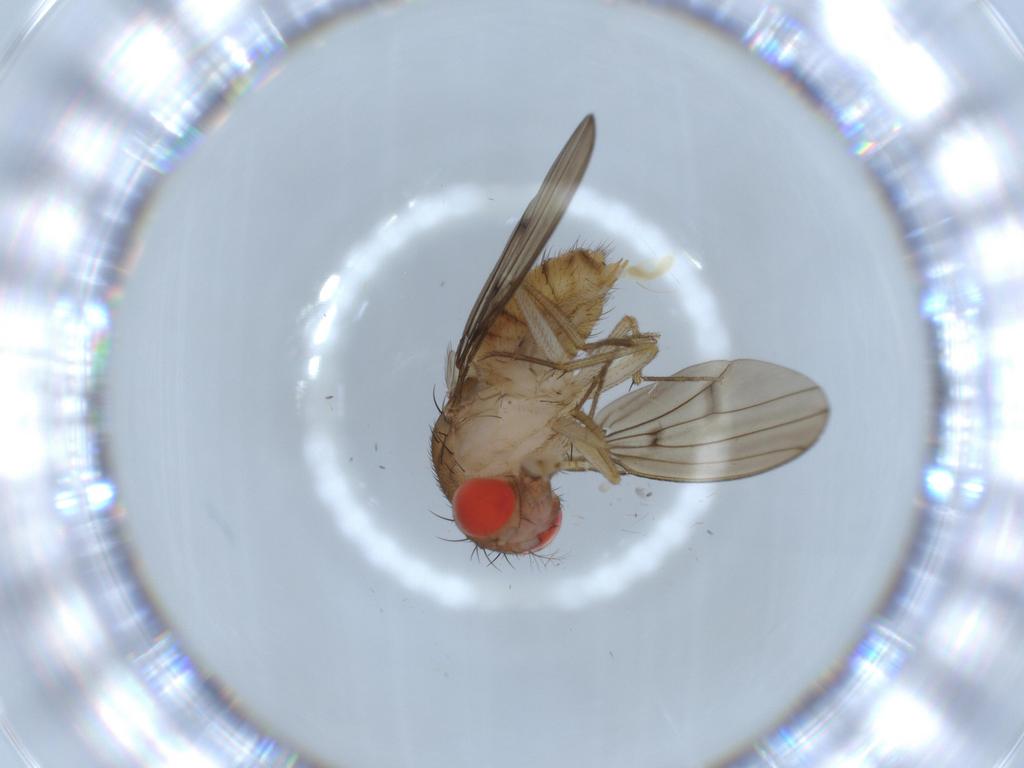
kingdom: Animalia
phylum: Arthropoda
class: Insecta
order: Diptera
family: Drosophilidae
